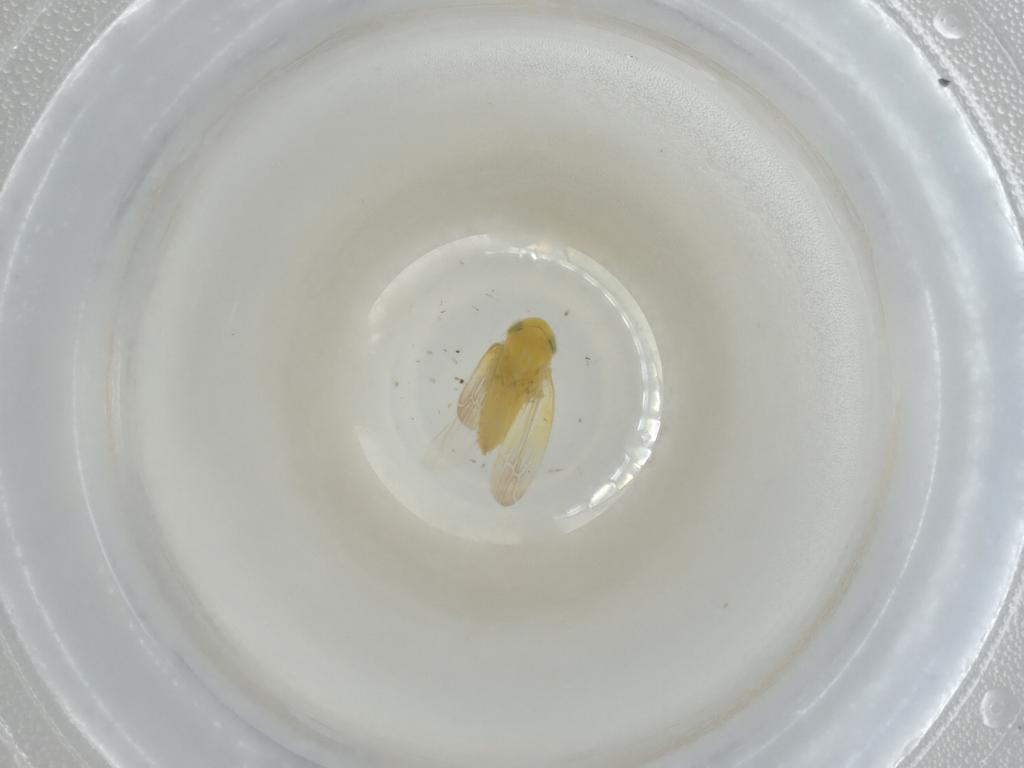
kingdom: Animalia
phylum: Arthropoda
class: Insecta
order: Hemiptera
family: Cicadellidae
